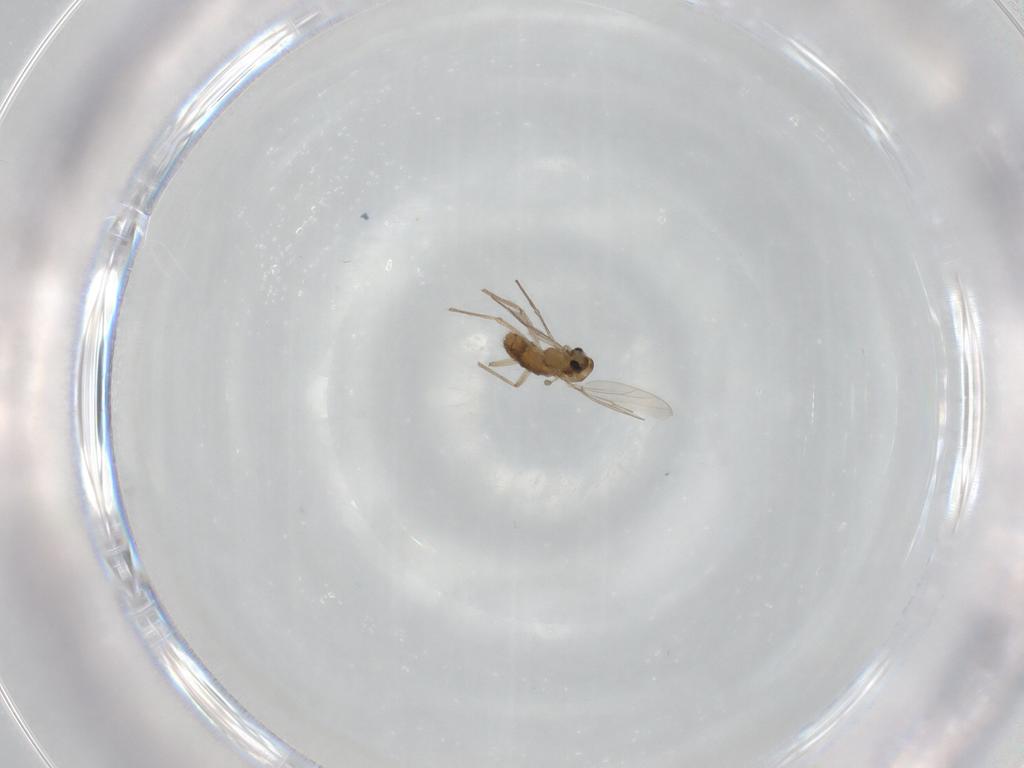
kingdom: Animalia
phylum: Arthropoda
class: Insecta
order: Diptera
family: Chironomidae
